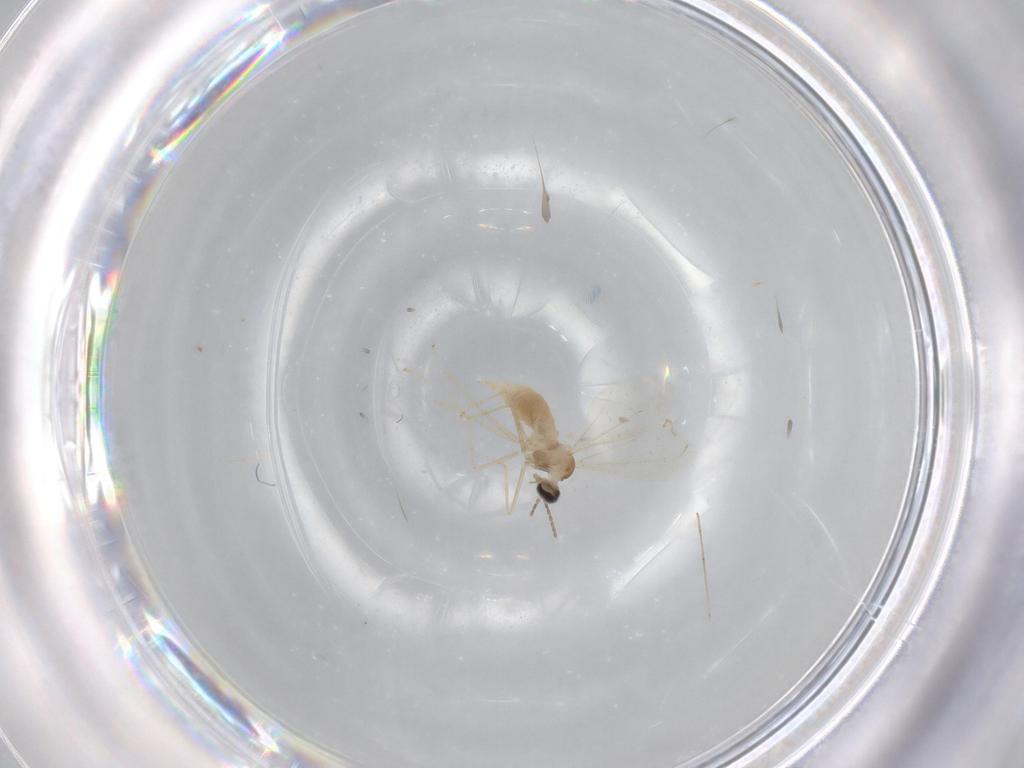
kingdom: Animalia
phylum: Arthropoda
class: Insecta
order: Diptera
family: Cecidomyiidae
